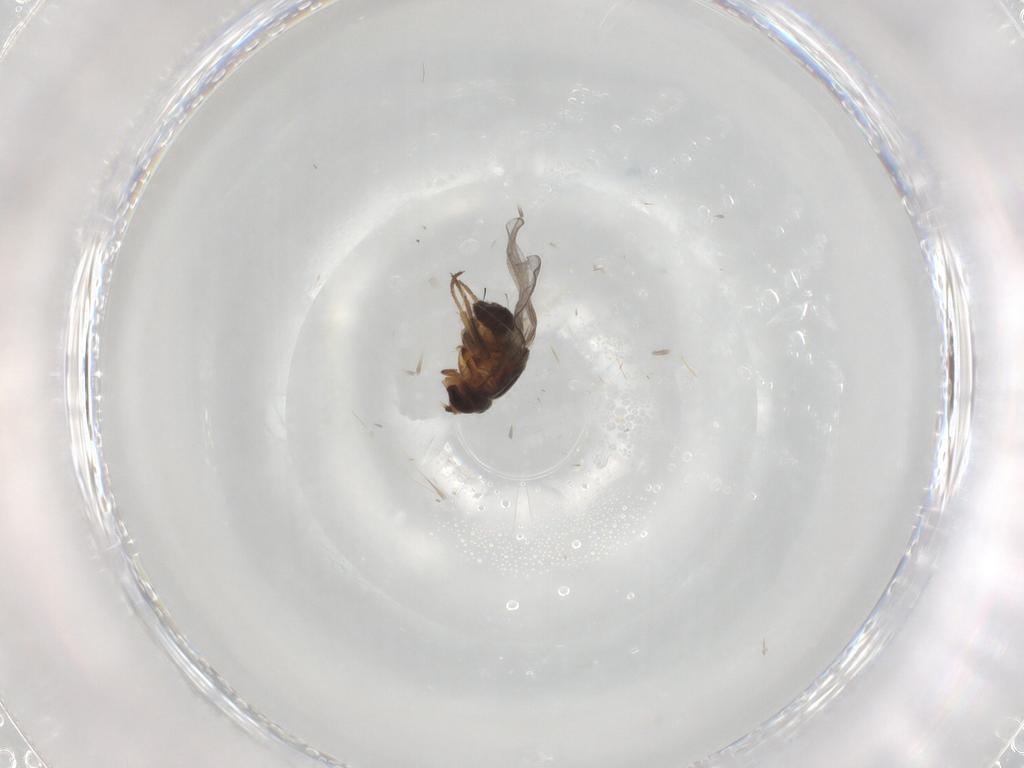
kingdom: Animalia
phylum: Arthropoda
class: Insecta
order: Diptera
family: Chloropidae
